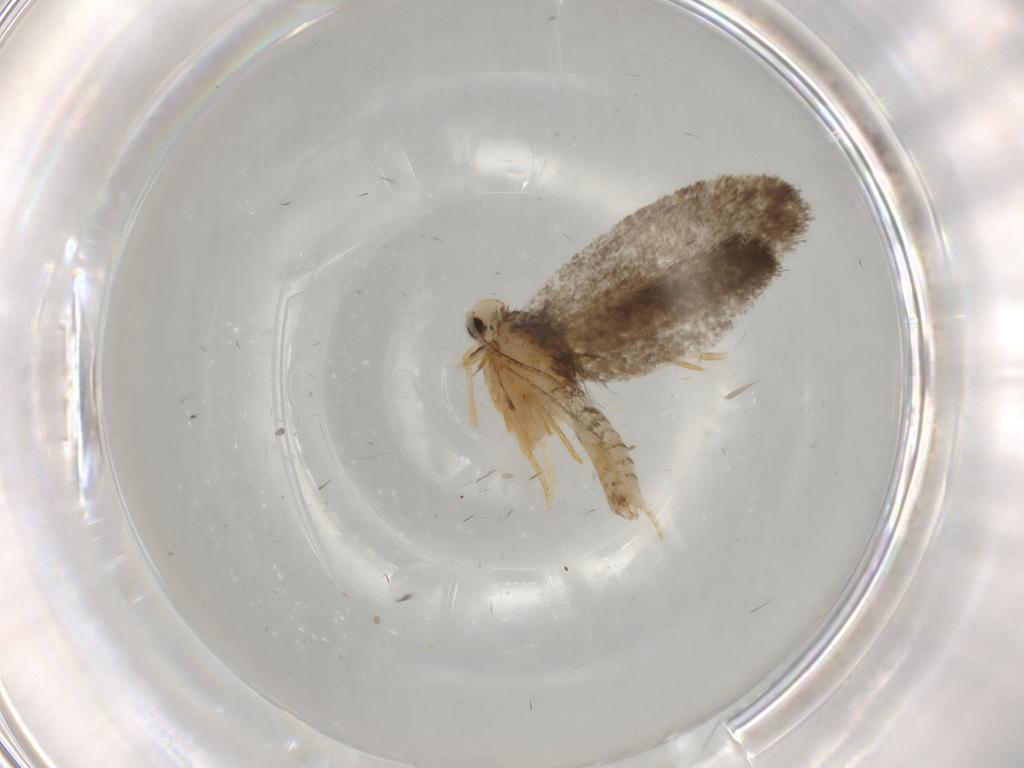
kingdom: Animalia
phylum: Arthropoda
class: Insecta
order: Lepidoptera
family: Psychidae
